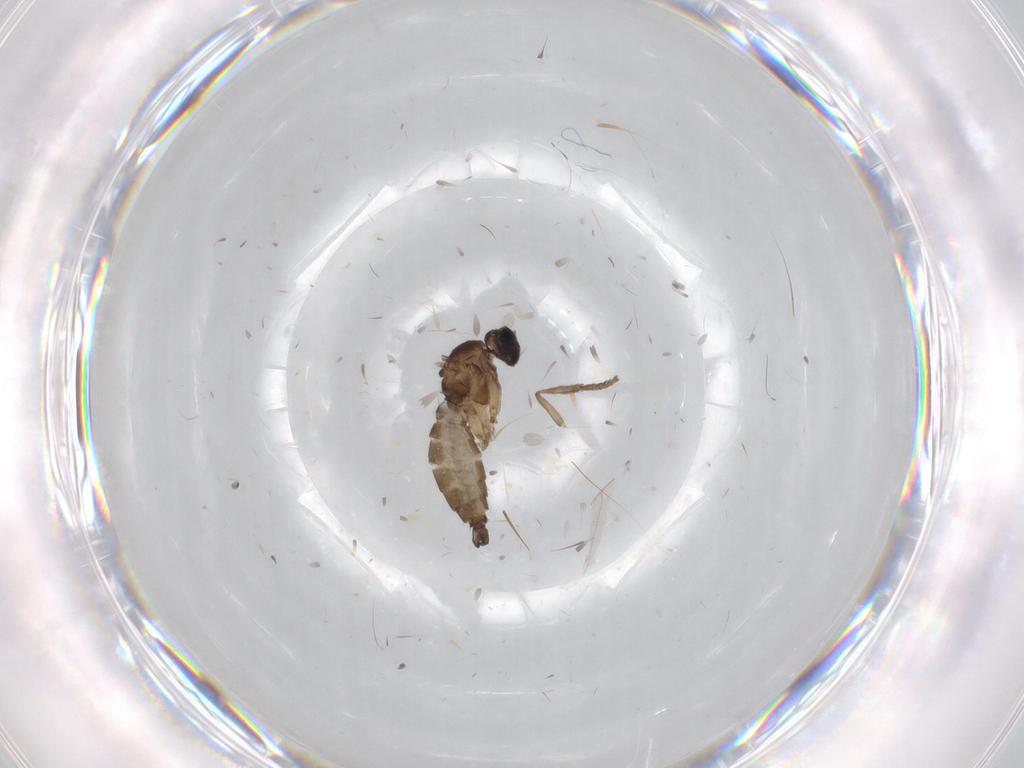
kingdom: Animalia
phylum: Arthropoda
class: Insecta
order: Diptera
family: Sciaridae
